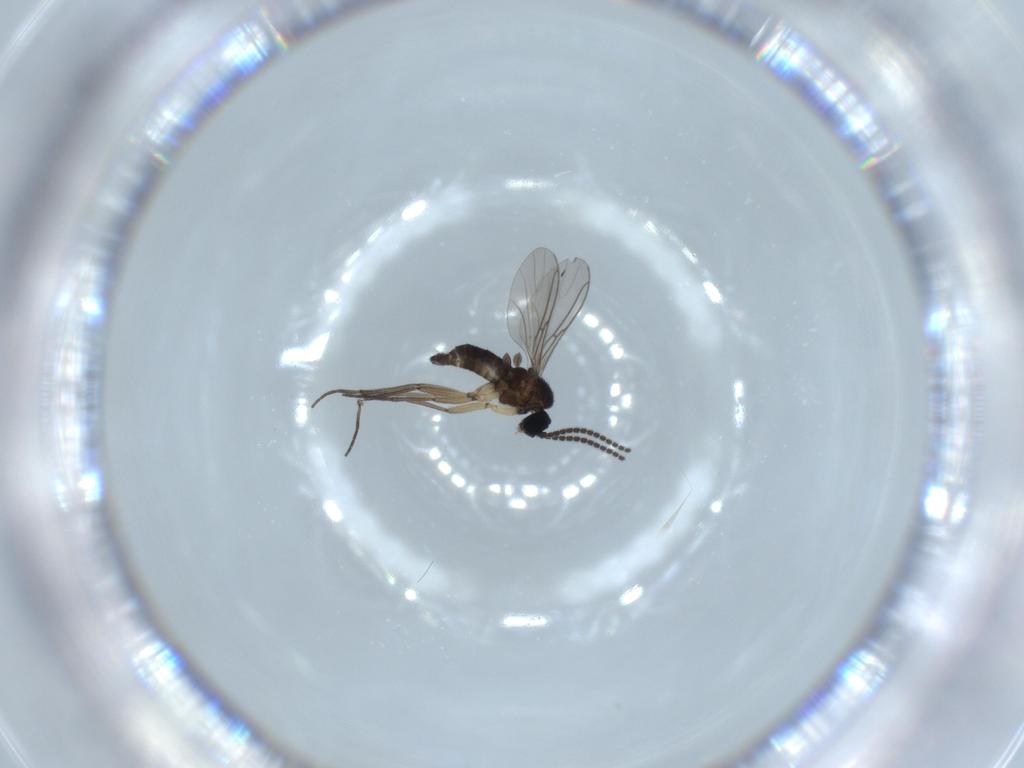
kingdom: Animalia
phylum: Arthropoda
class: Insecta
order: Diptera
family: Sciaridae
